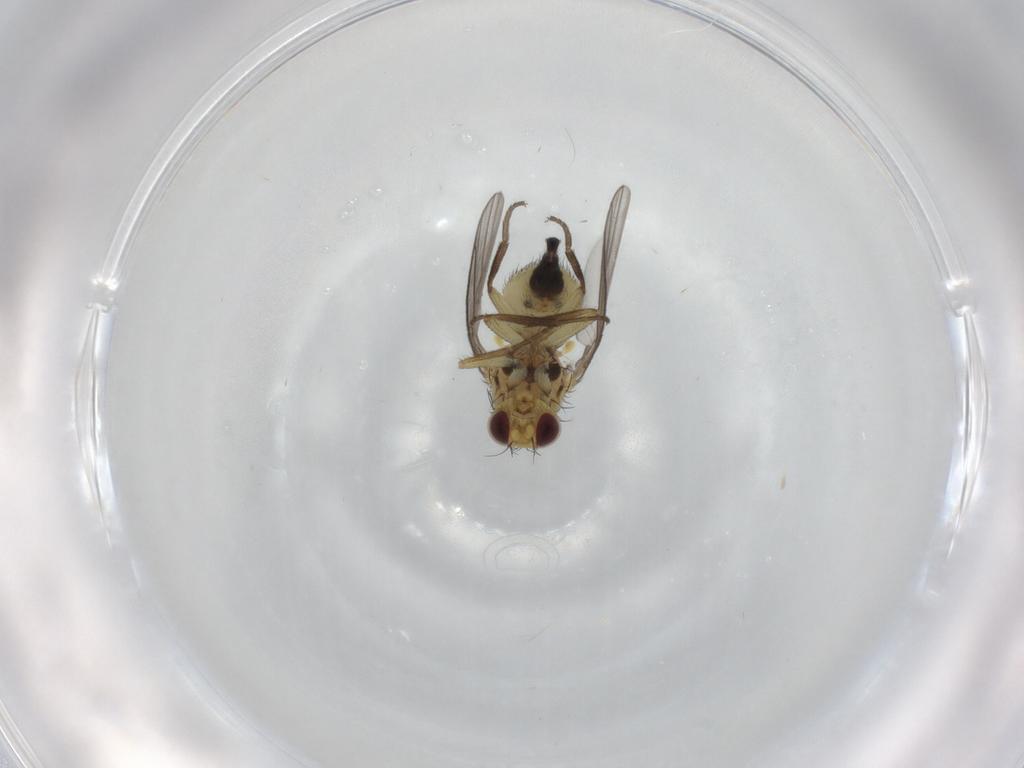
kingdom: Animalia
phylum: Arthropoda
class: Insecta
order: Diptera
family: Agromyzidae
